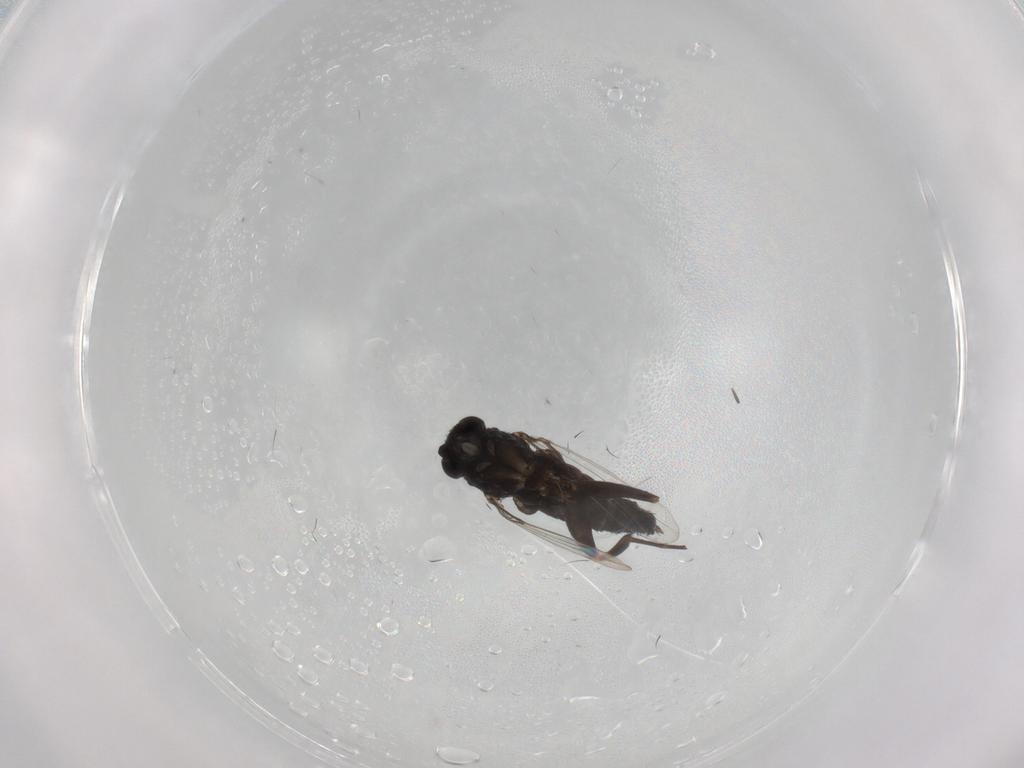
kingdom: Animalia
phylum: Arthropoda
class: Insecta
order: Diptera
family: Phoridae
